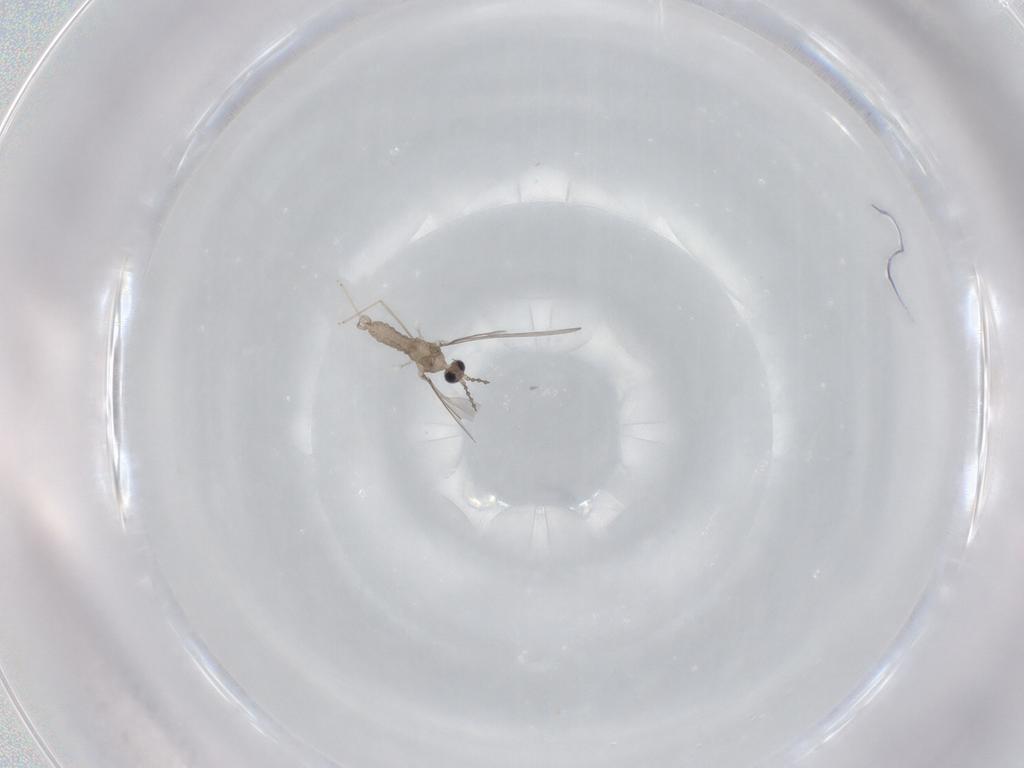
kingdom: Animalia
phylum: Arthropoda
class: Insecta
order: Diptera
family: Cecidomyiidae
